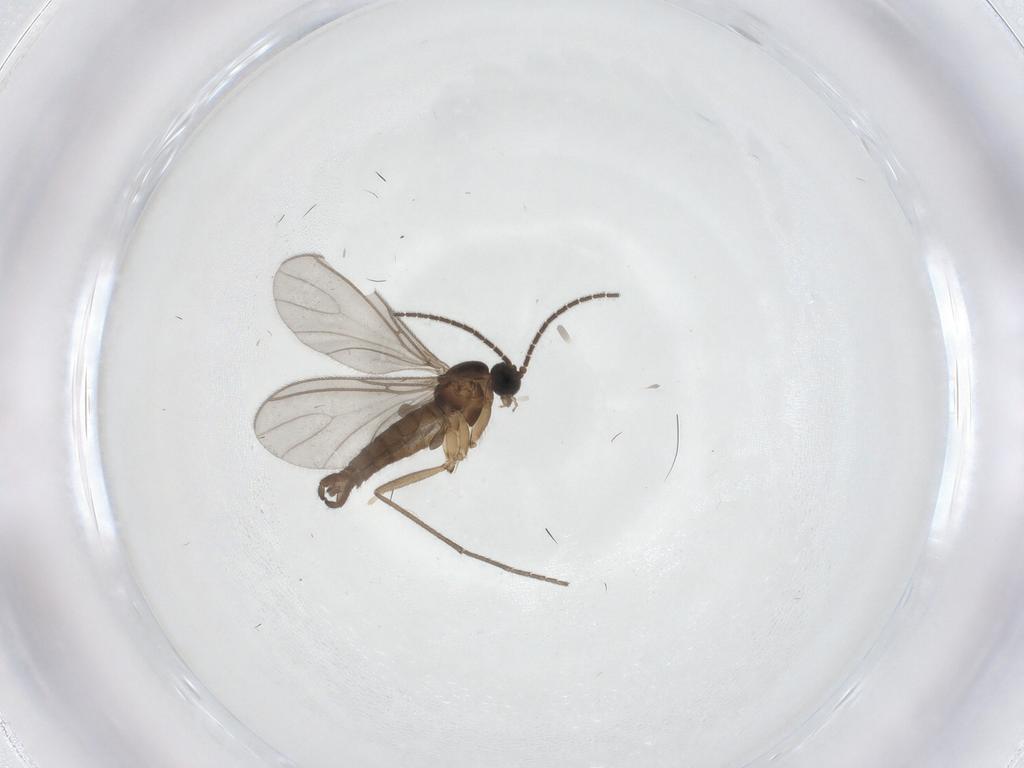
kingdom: Animalia
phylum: Arthropoda
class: Insecta
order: Diptera
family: Sciaridae
